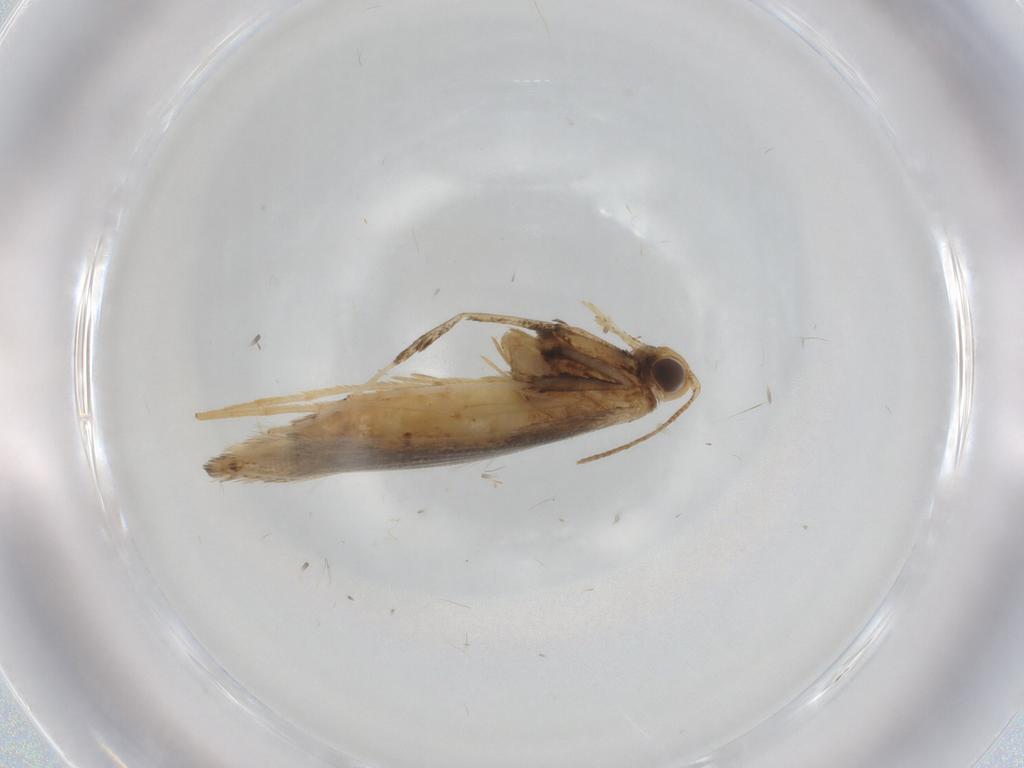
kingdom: Animalia
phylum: Arthropoda
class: Insecta
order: Lepidoptera
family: Gracillariidae
